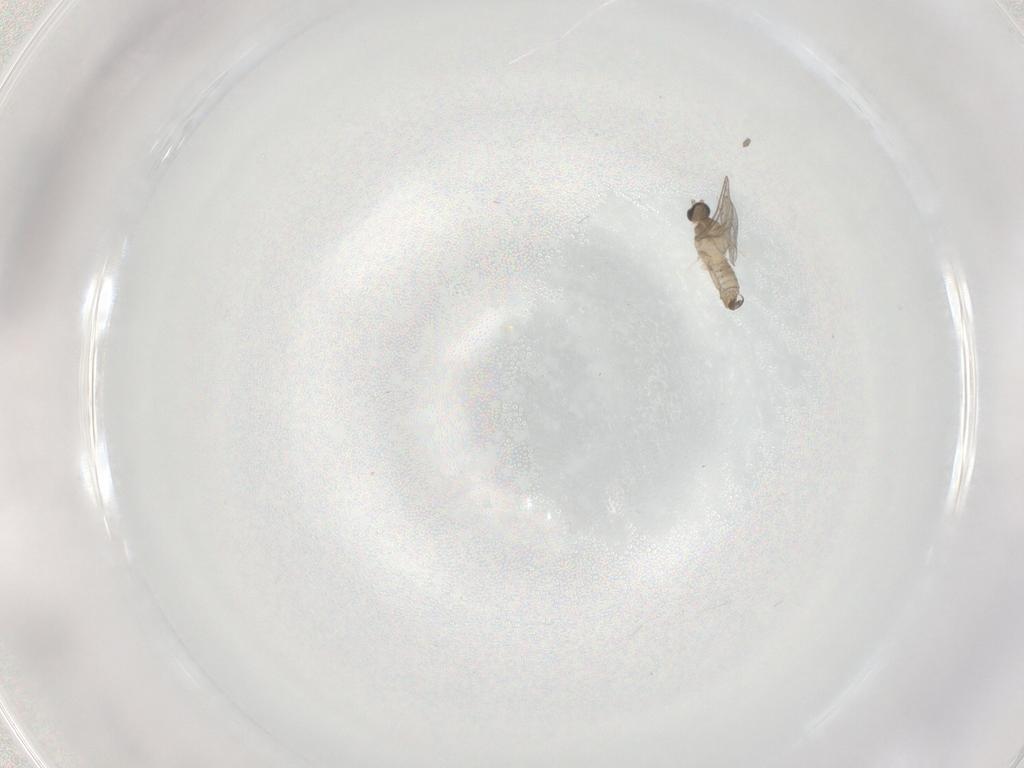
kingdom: Animalia
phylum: Arthropoda
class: Insecta
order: Diptera
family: Cecidomyiidae
